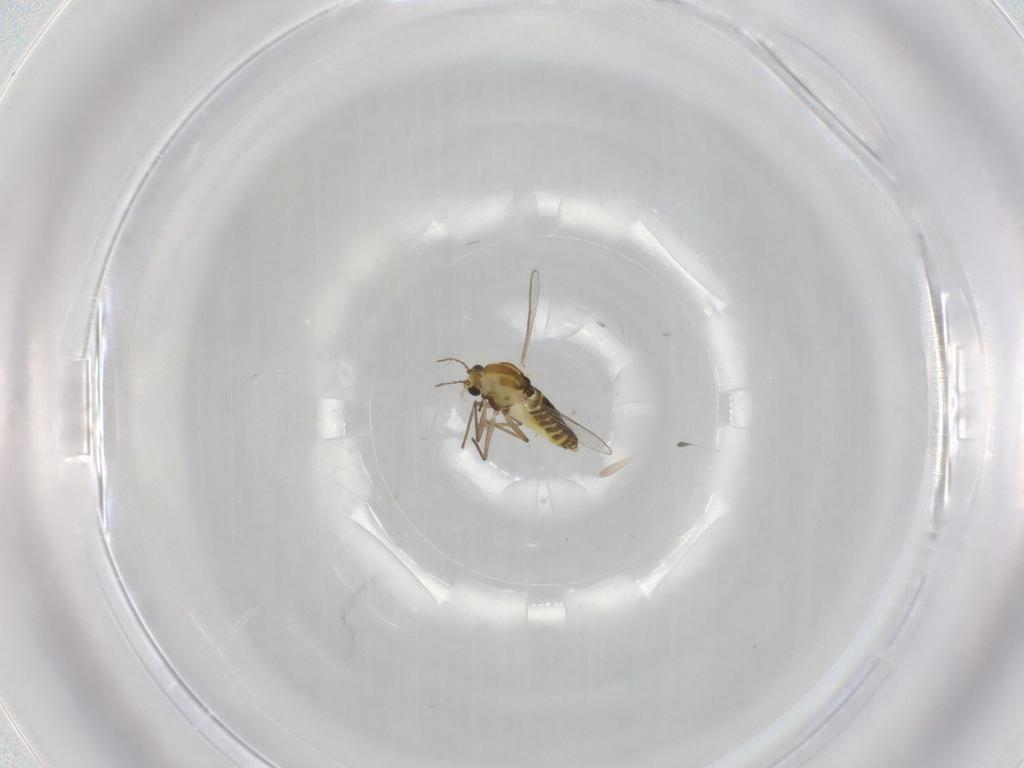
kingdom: Animalia
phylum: Arthropoda
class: Insecta
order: Diptera
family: Chironomidae
